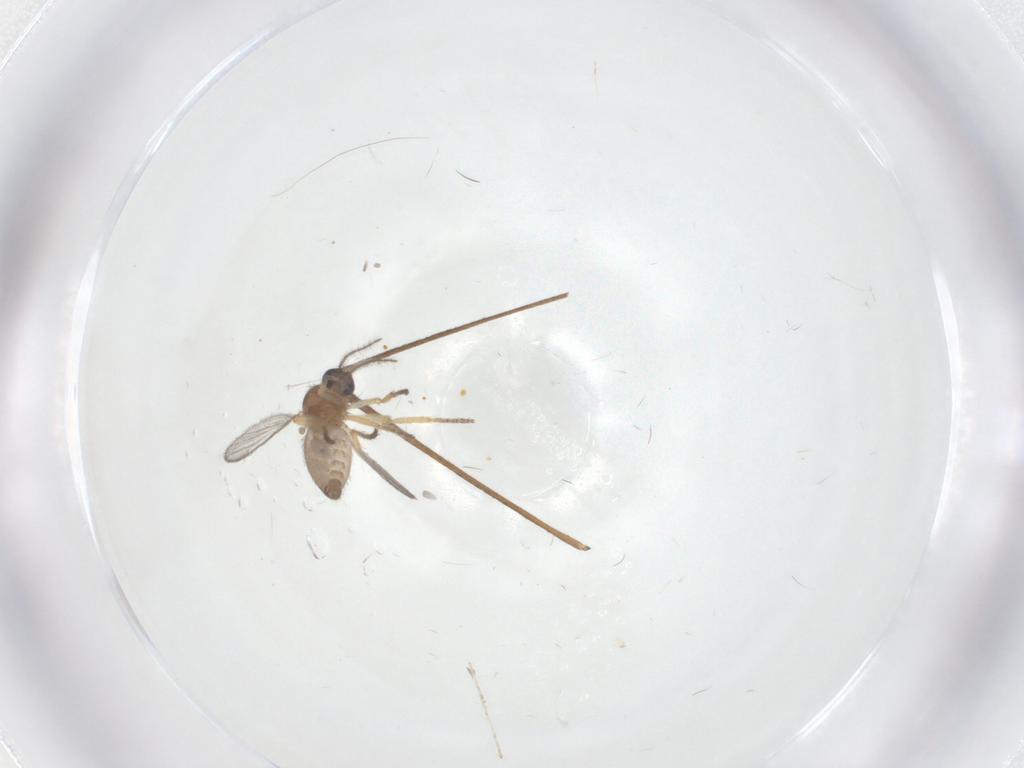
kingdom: Animalia
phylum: Arthropoda
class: Insecta
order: Diptera
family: Ceratopogonidae
